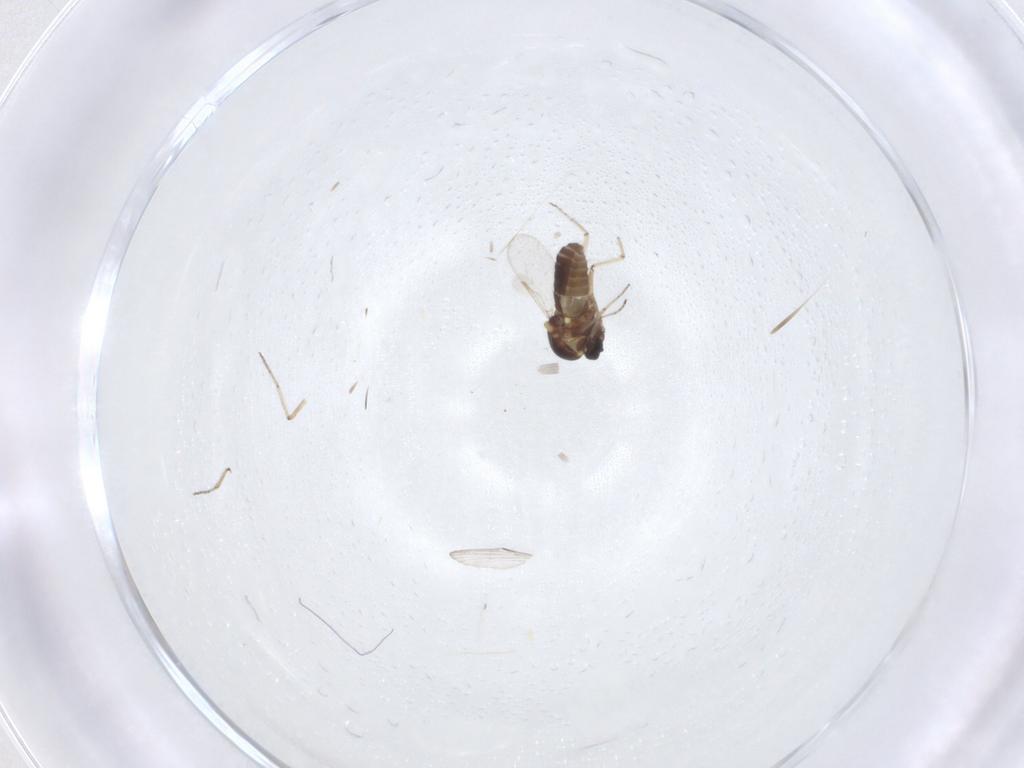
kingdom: Animalia
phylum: Arthropoda
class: Insecta
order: Diptera
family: Ceratopogonidae
